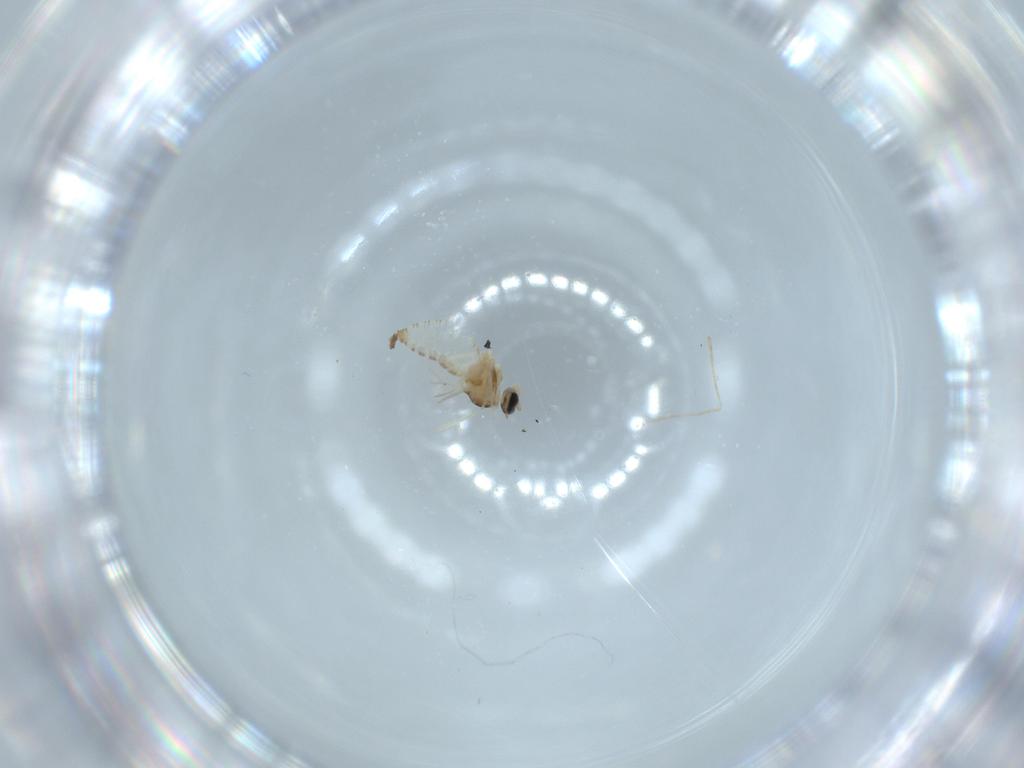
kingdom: Animalia
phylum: Arthropoda
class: Insecta
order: Diptera
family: Cecidomyiidae
